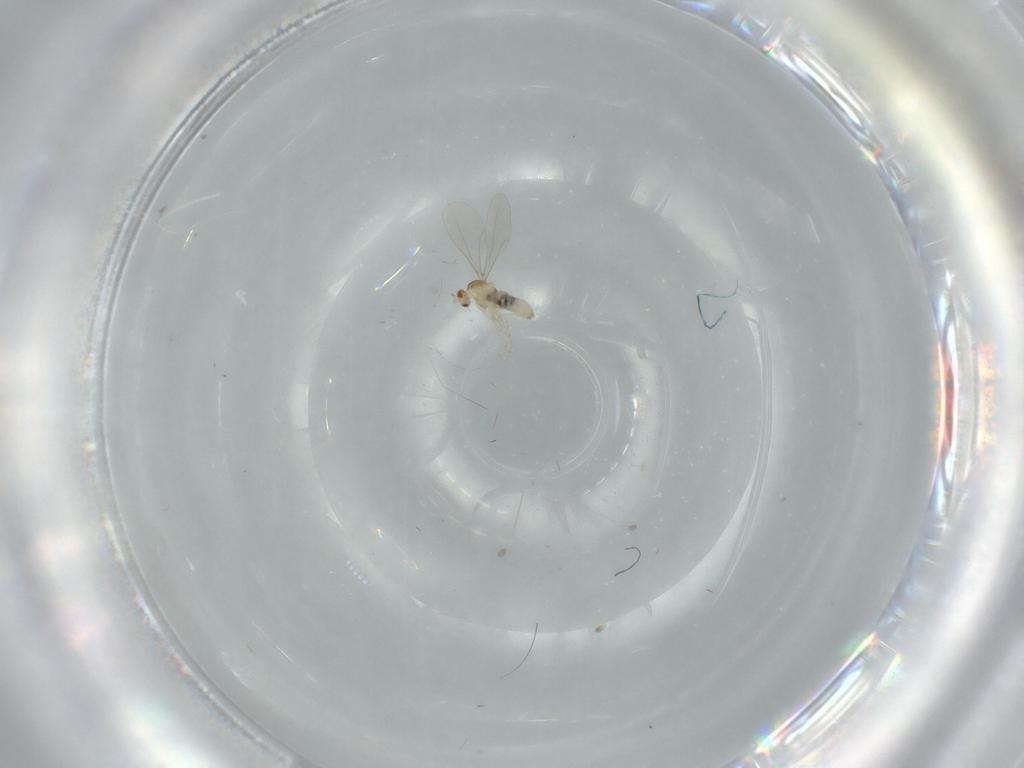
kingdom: Animalia
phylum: Arthropoda
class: Insecta
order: Diptera
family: Cecidomyiidae
